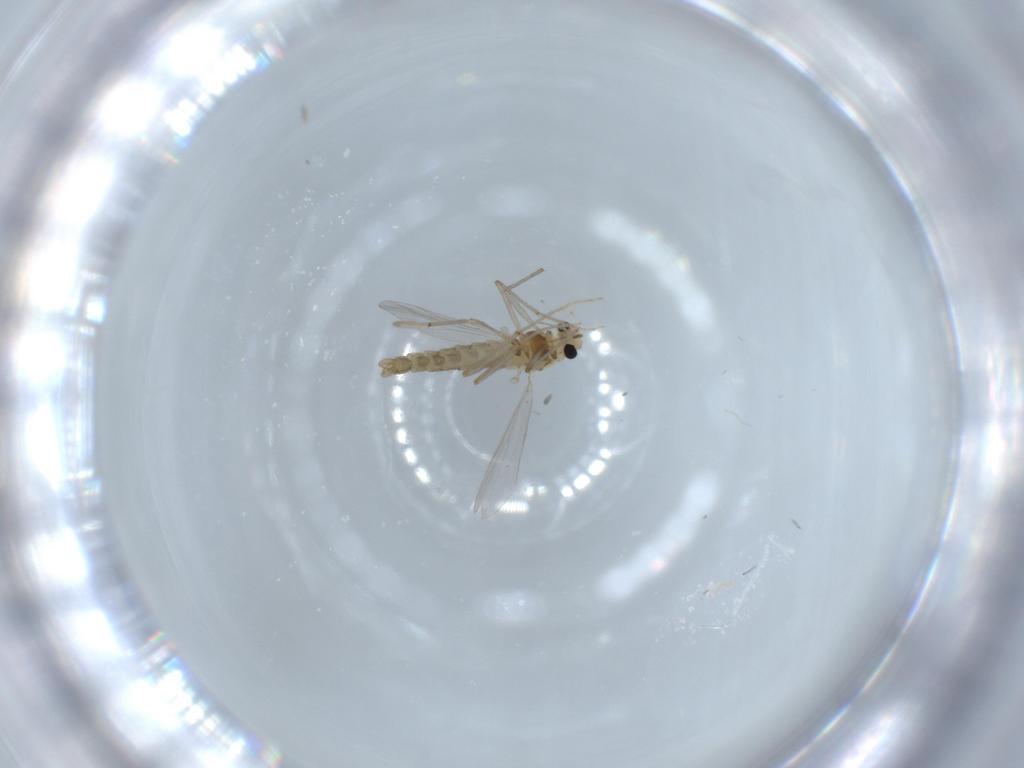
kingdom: Animalia
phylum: Arthropoda
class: Insecta
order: Diptera
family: Chironomidae
